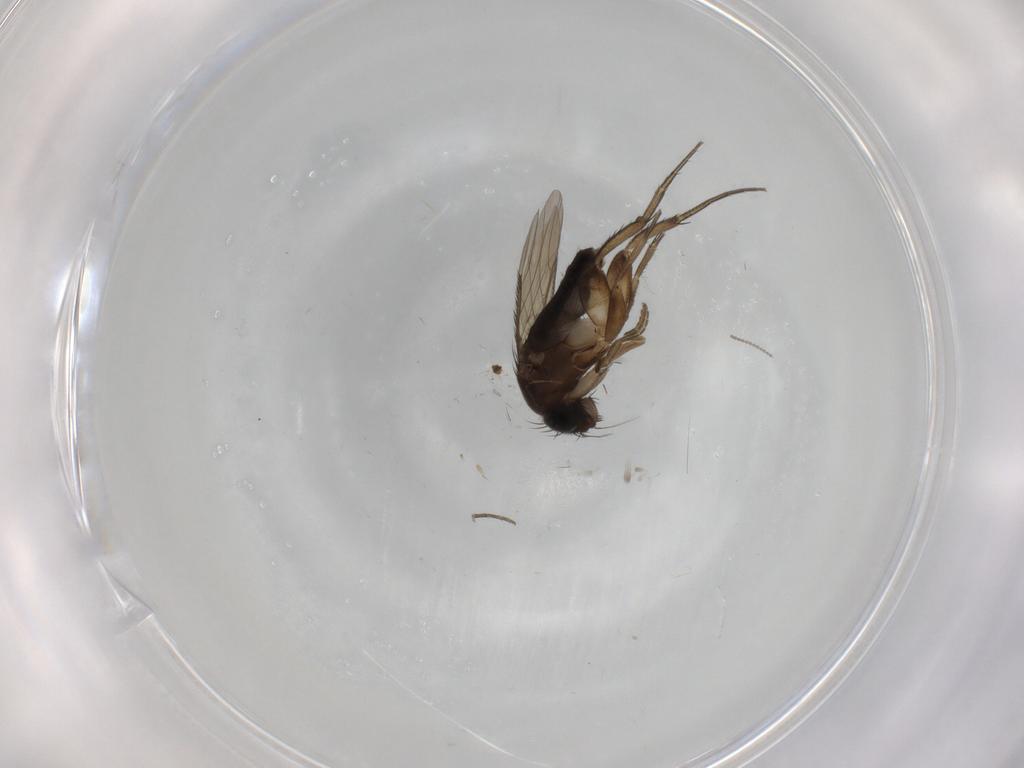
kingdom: Animalia
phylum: Arthropoda
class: Insecta
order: Diptera
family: Phoridae
